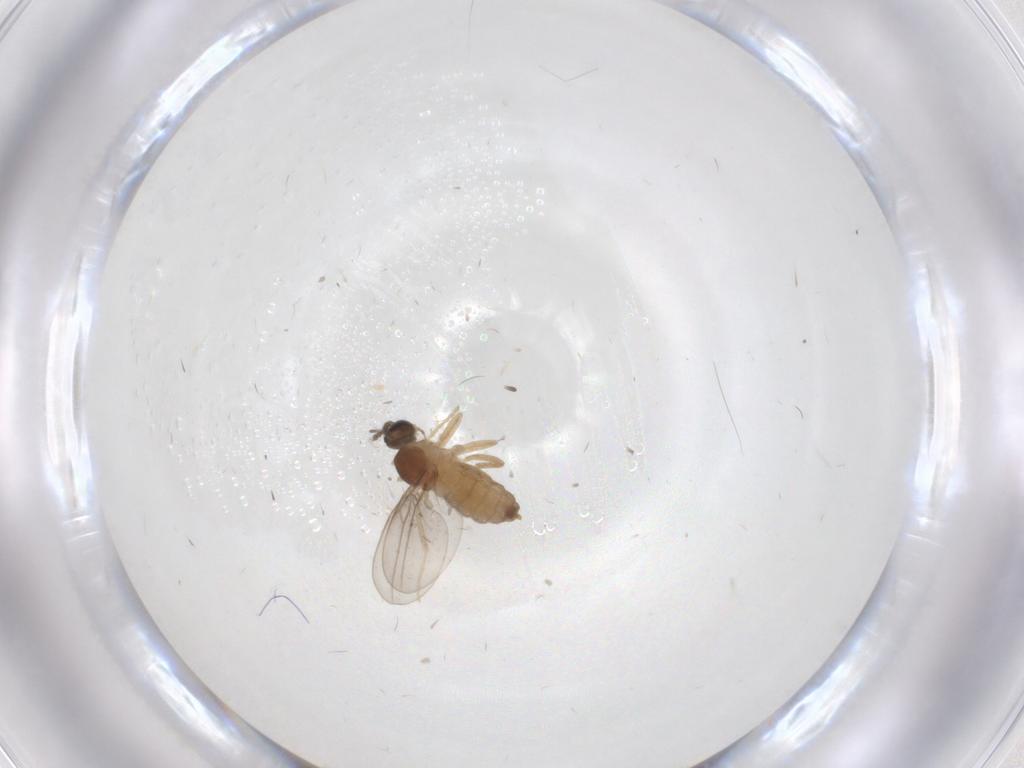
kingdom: Animalia
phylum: Arthropoda
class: Insecta
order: Diptera
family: Cecidomyiidae
